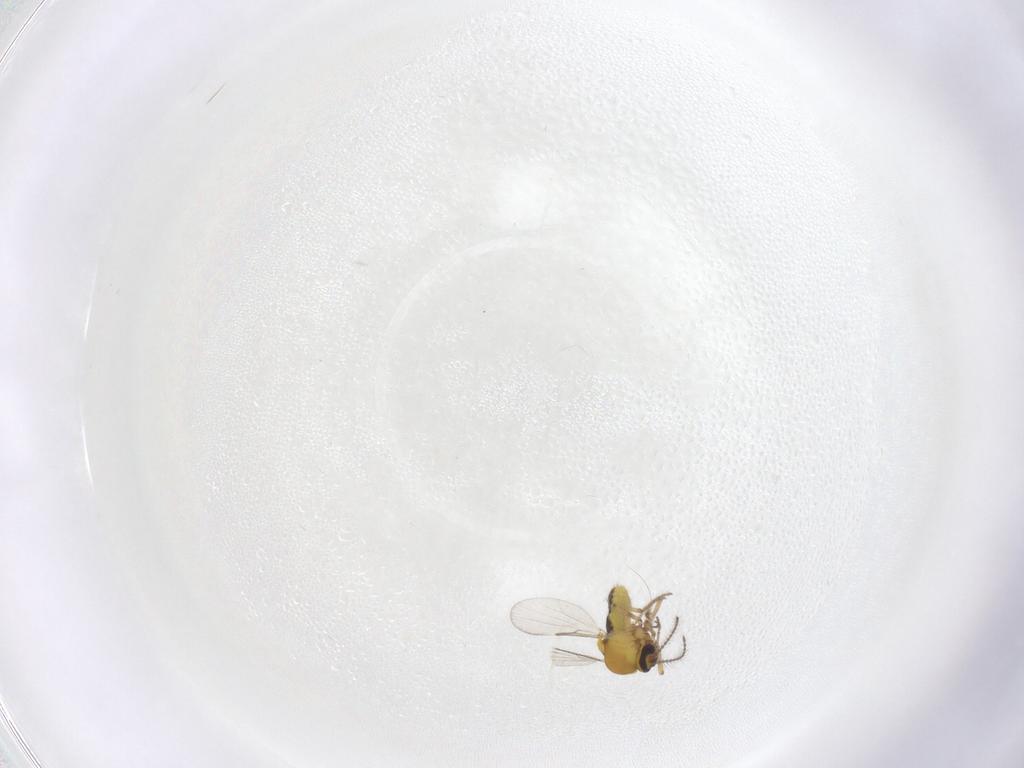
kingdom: Animalia
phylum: Arthropoda
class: Insecta
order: Diptera
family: Ceratopogonidae
